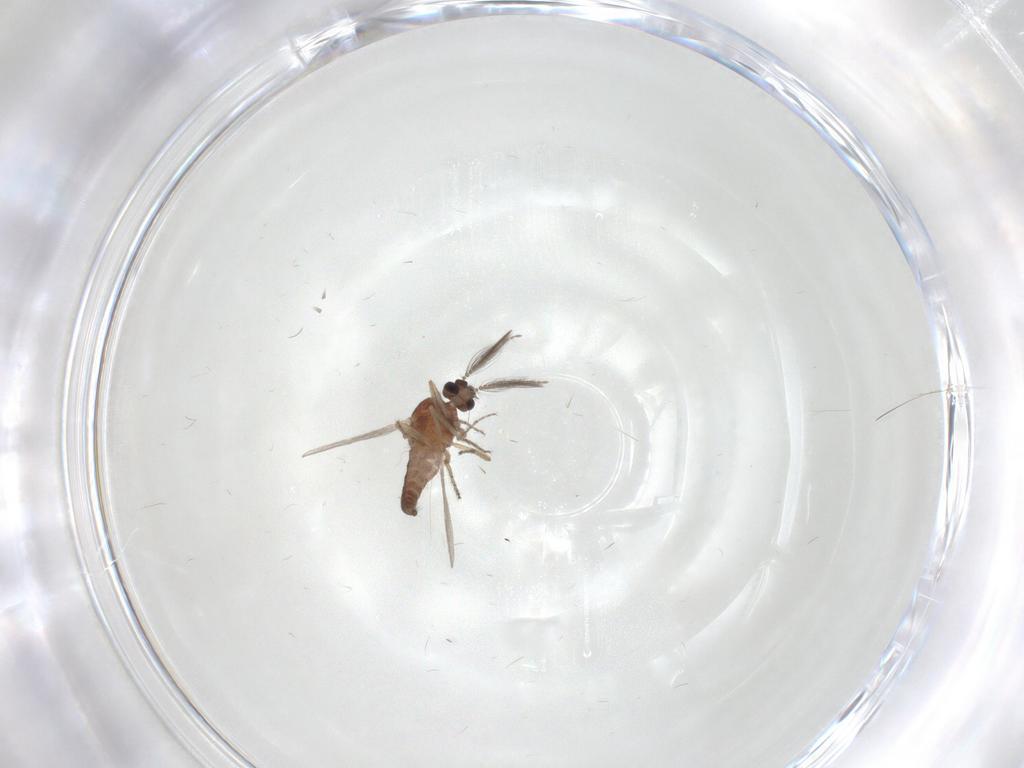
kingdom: Animalia
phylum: Arthropoda
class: Insecta
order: Diptera
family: Ceratopogonidae
